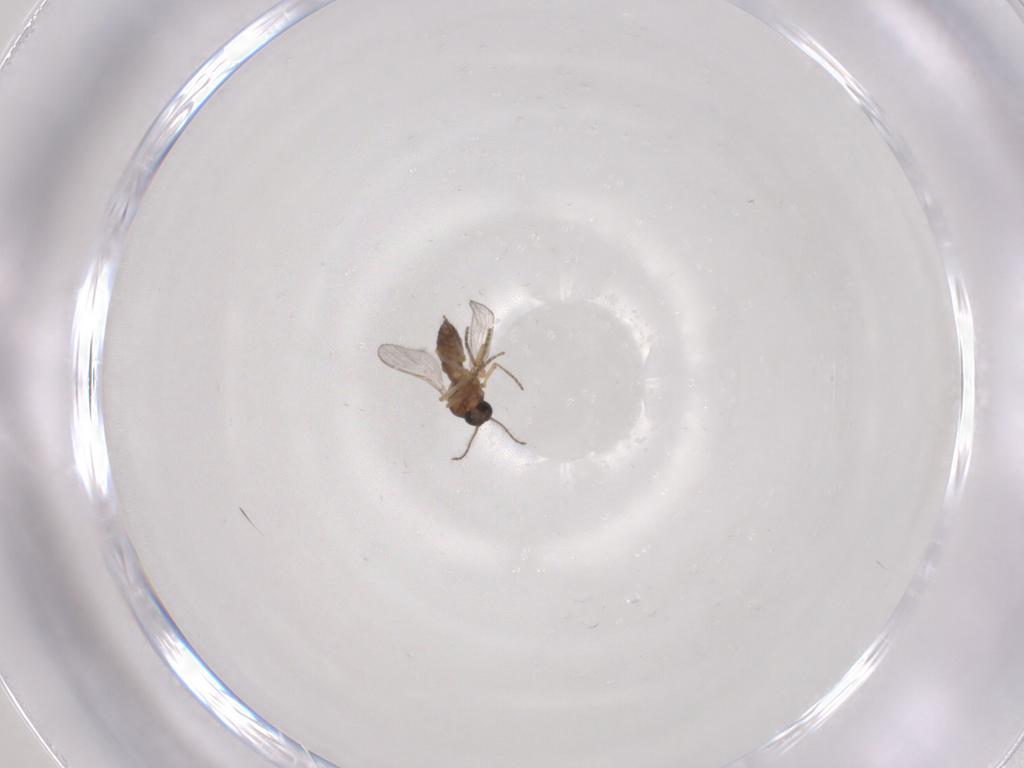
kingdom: Animalia
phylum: Arthropoda
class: Insecta
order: Diptera
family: Ceratopogonidae
